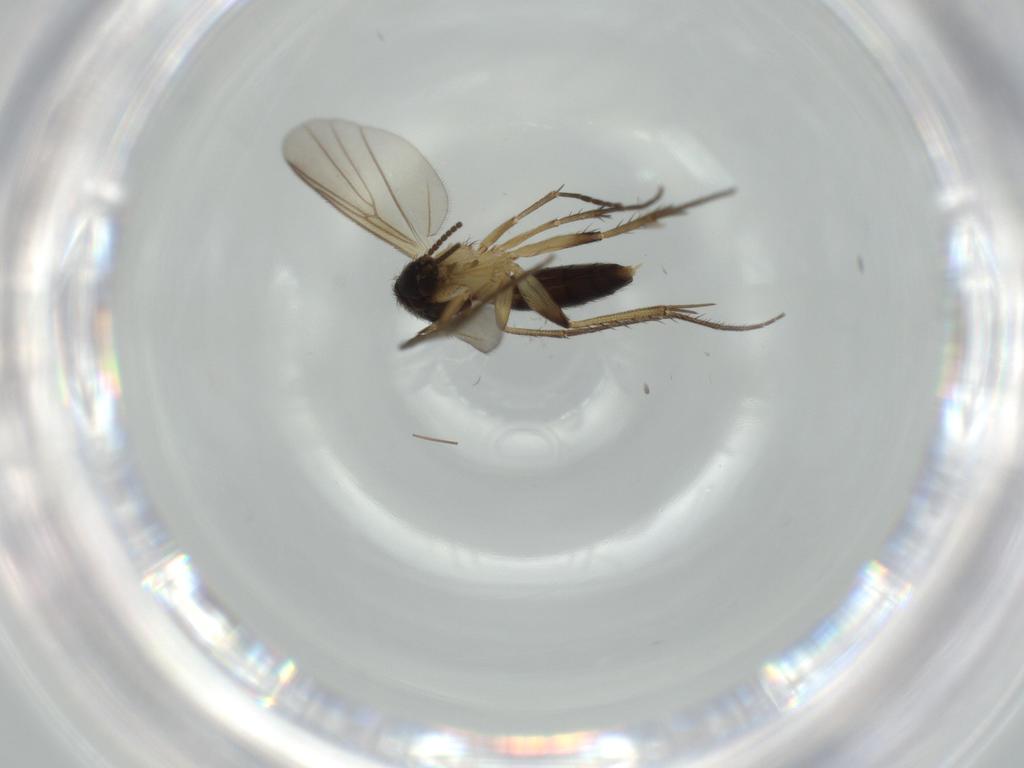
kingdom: Animalia
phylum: Arthropoda
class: Insecta
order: Diptera
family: Mycetophilidae
